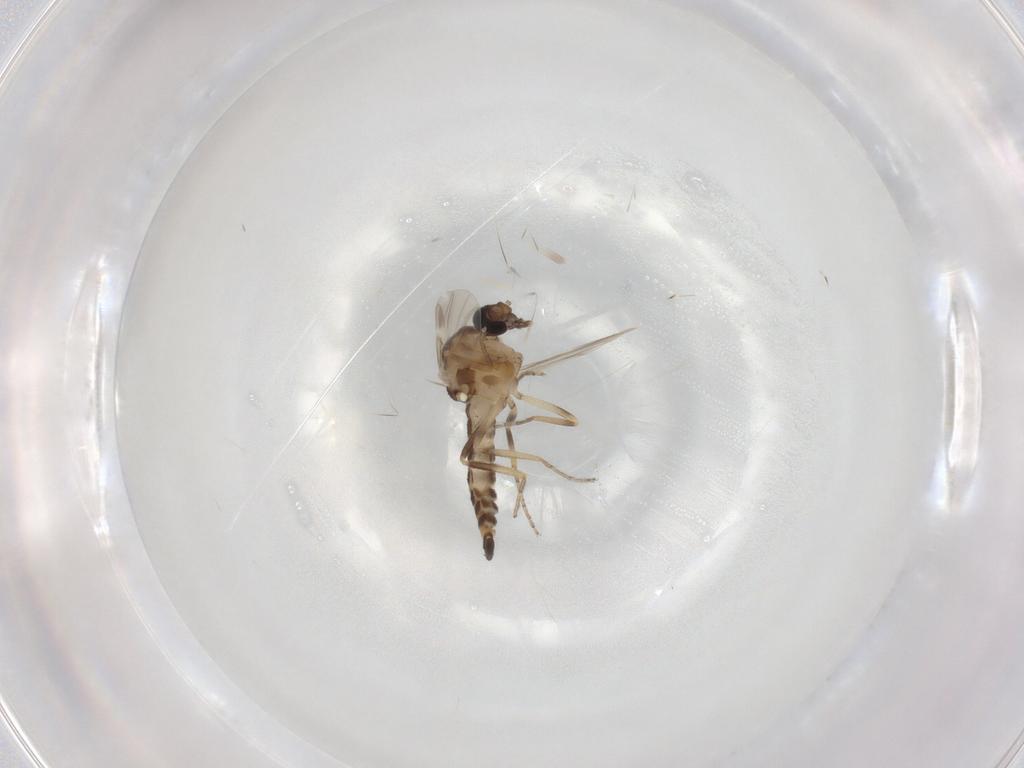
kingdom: Animalia
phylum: Arthropoda
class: Insecta
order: Diptera
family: Ceratopogonidae
